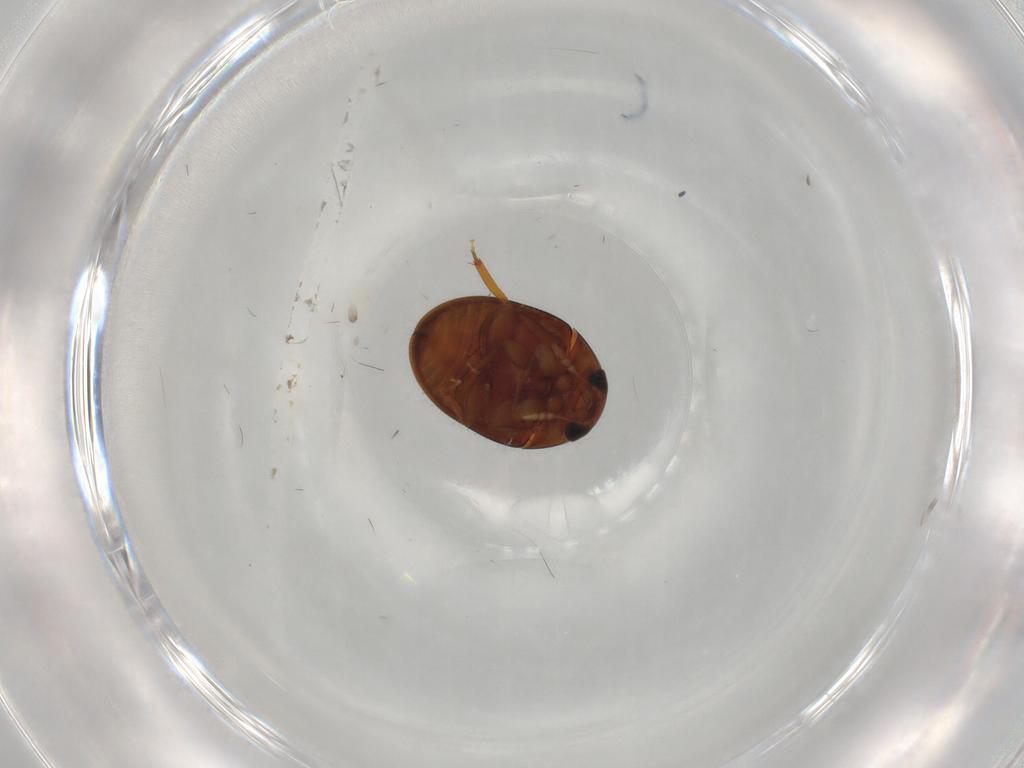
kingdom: Animalia
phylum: Arthropoda
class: Insecta
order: Coleoptera
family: Phalacridae
